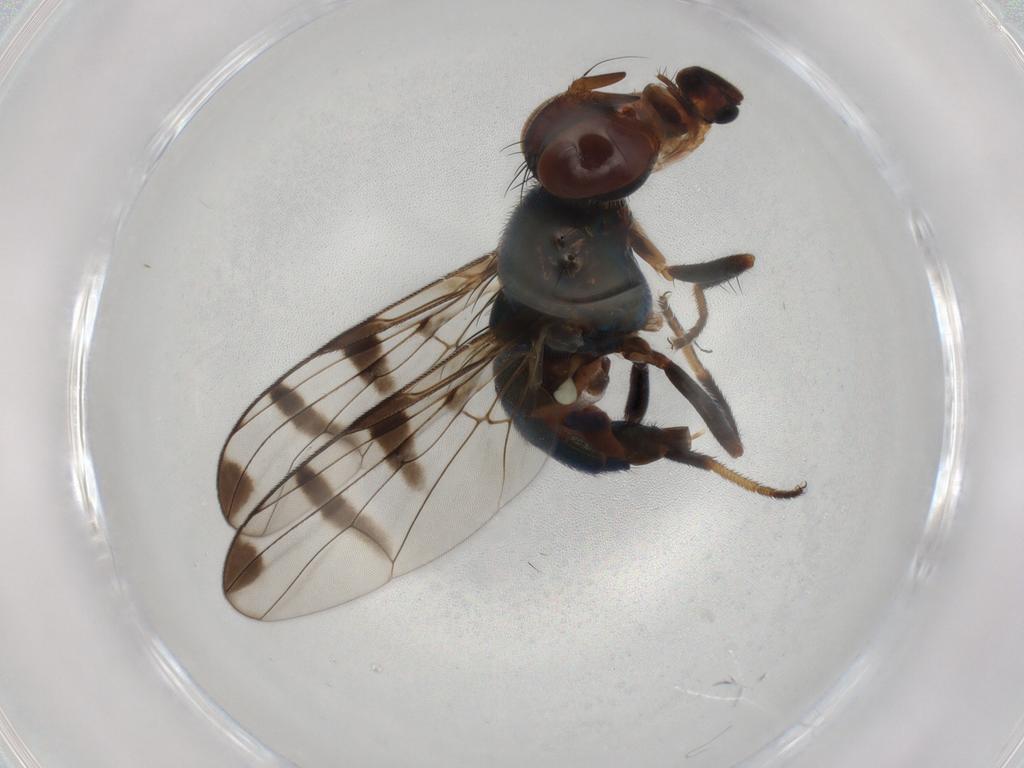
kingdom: Animalia
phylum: Arthropoda
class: Insecta
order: Diptera
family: Platystomatidae
